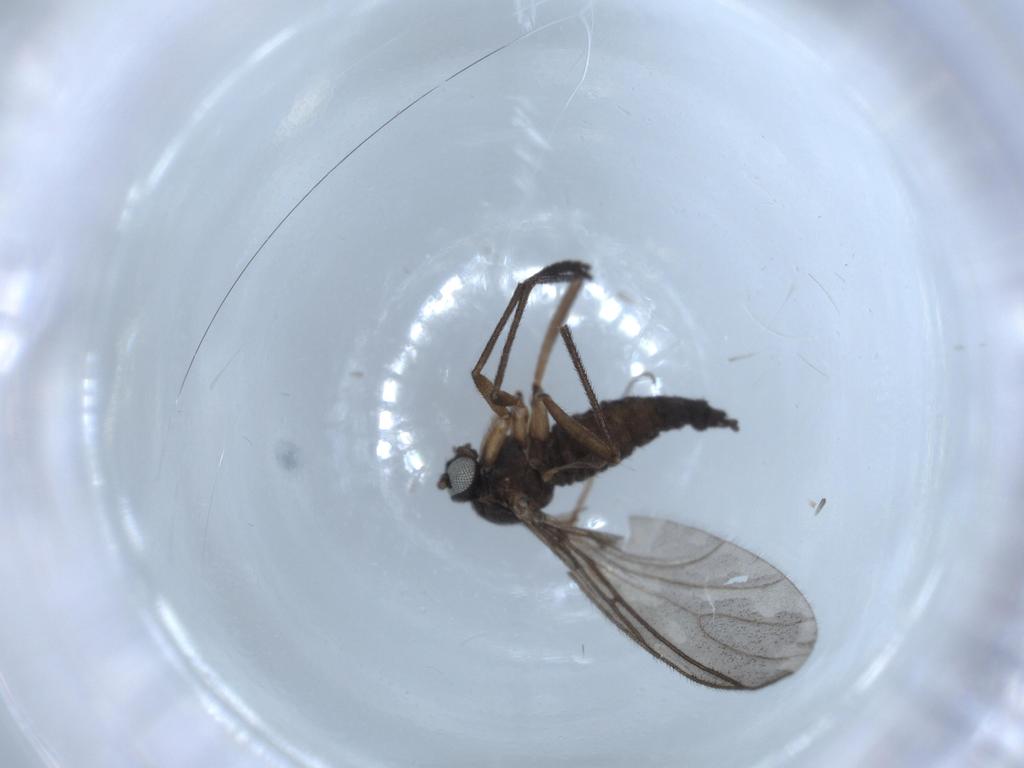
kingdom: Animalia
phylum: Arthropoda
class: Insecta
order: Diptera
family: Sciaridae
